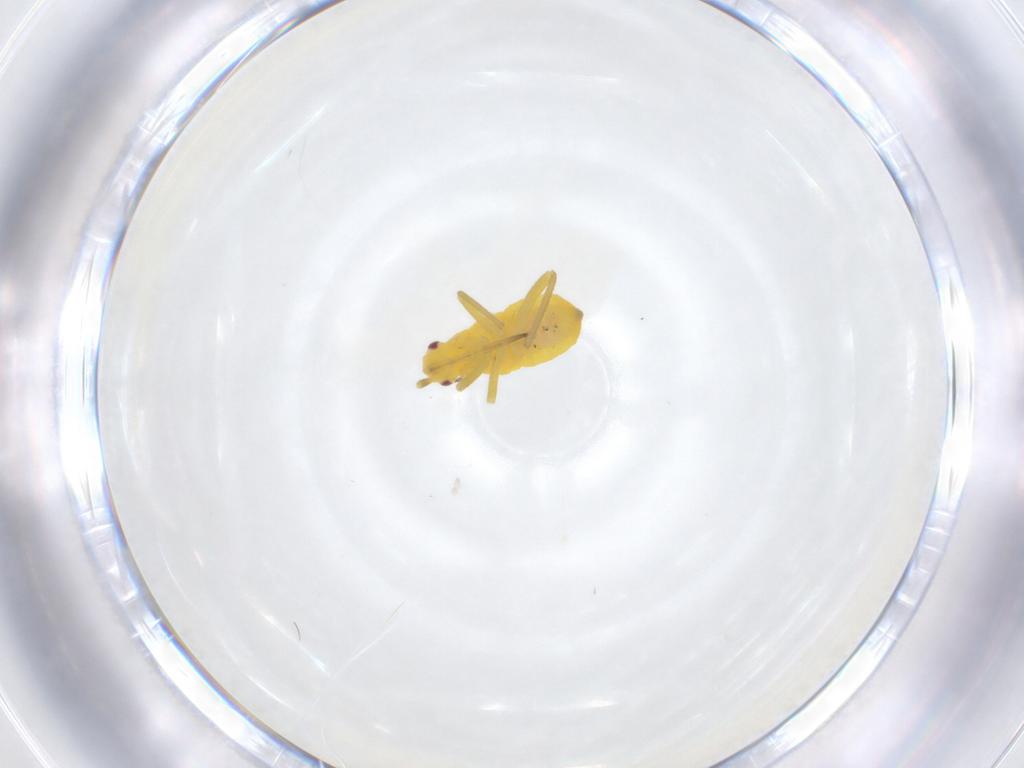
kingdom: Animalia
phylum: Arthropoda
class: Insecta
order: Hemiptera
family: Miridae
